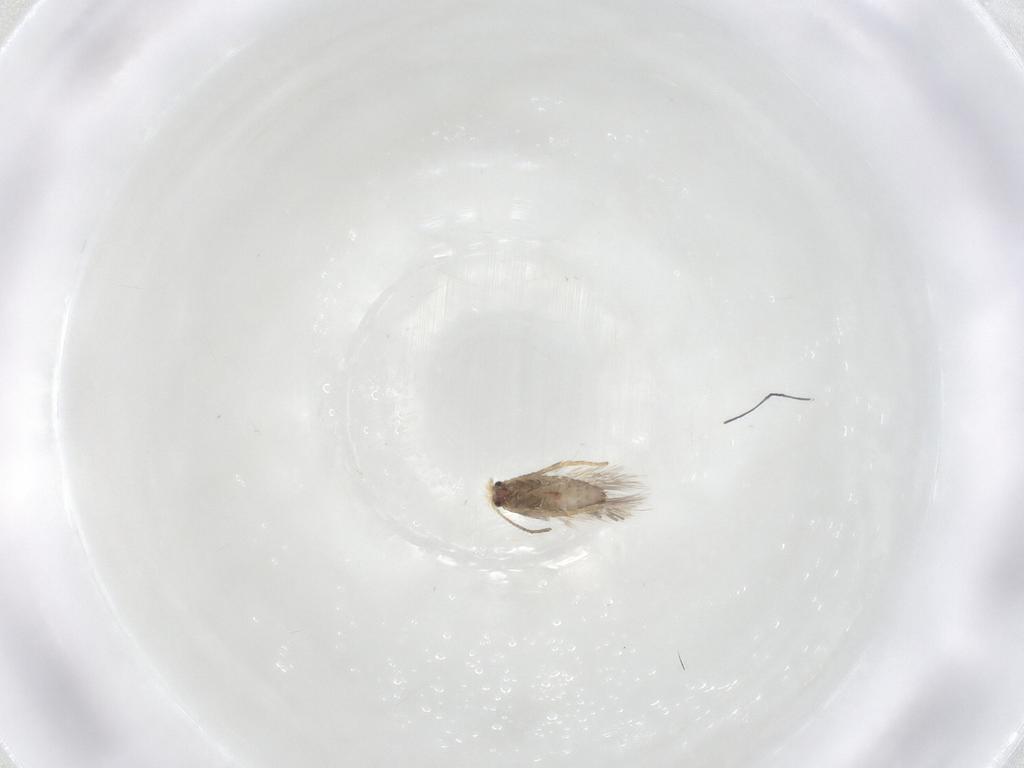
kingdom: Animalia
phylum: Arthropoda
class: Insecta
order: Lepidoptera
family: Nepticulidae
